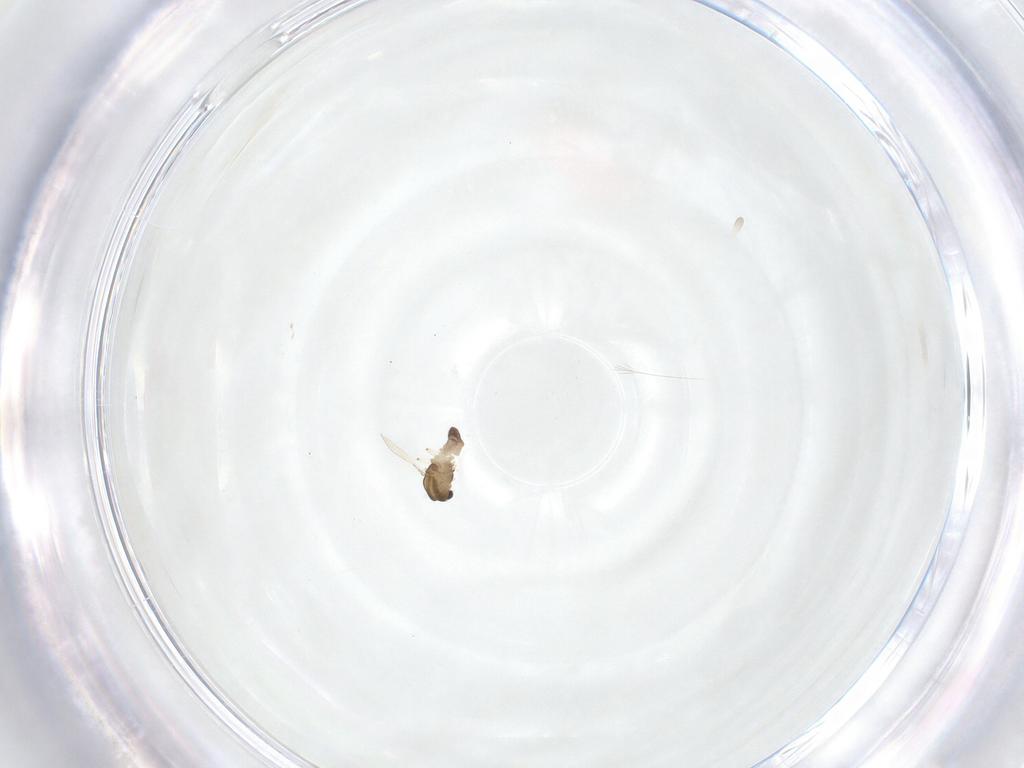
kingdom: Animalia
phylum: Arthropoda
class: Insecta
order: Diptera
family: Chironomidae
